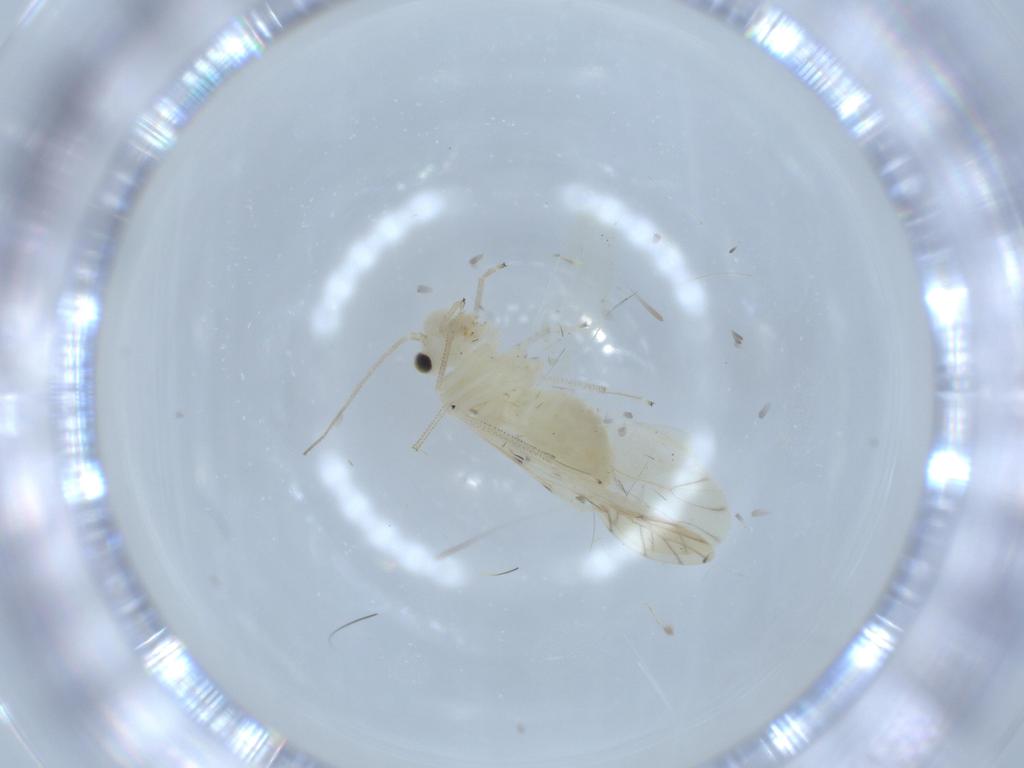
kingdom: Animalia
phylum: Arthropoda
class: Insecta
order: Psocodea
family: Caeciliusidae
